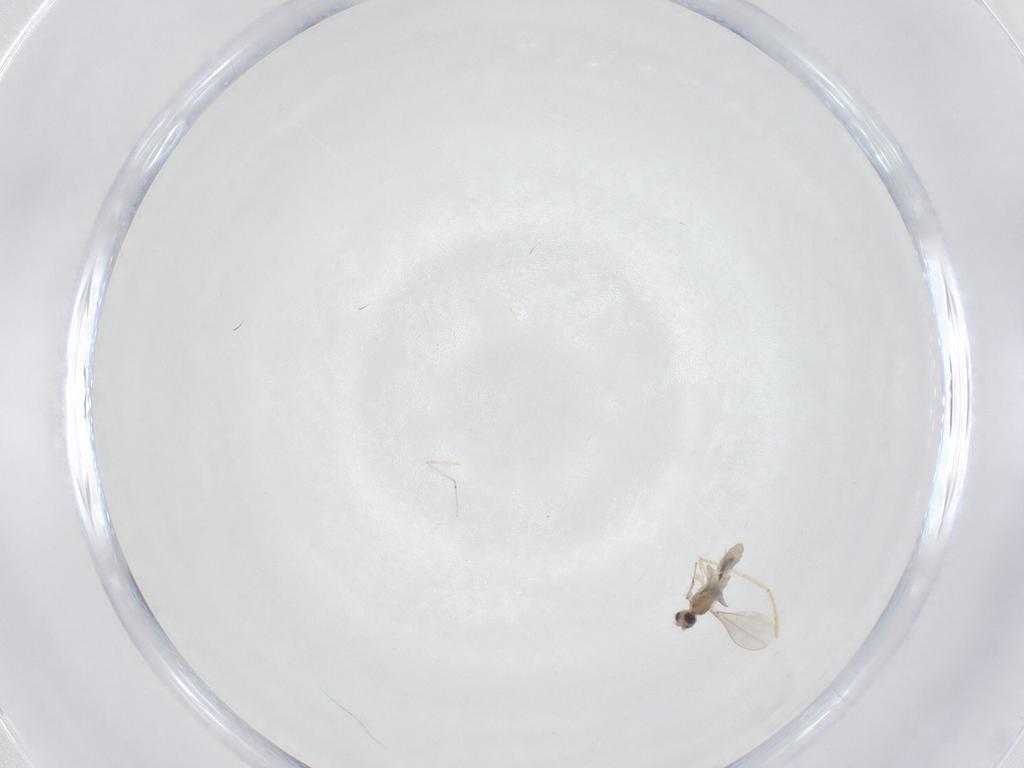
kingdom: Animalia
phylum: Arthropoda
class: Insecta
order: Diptera
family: Cecidomyiidae
